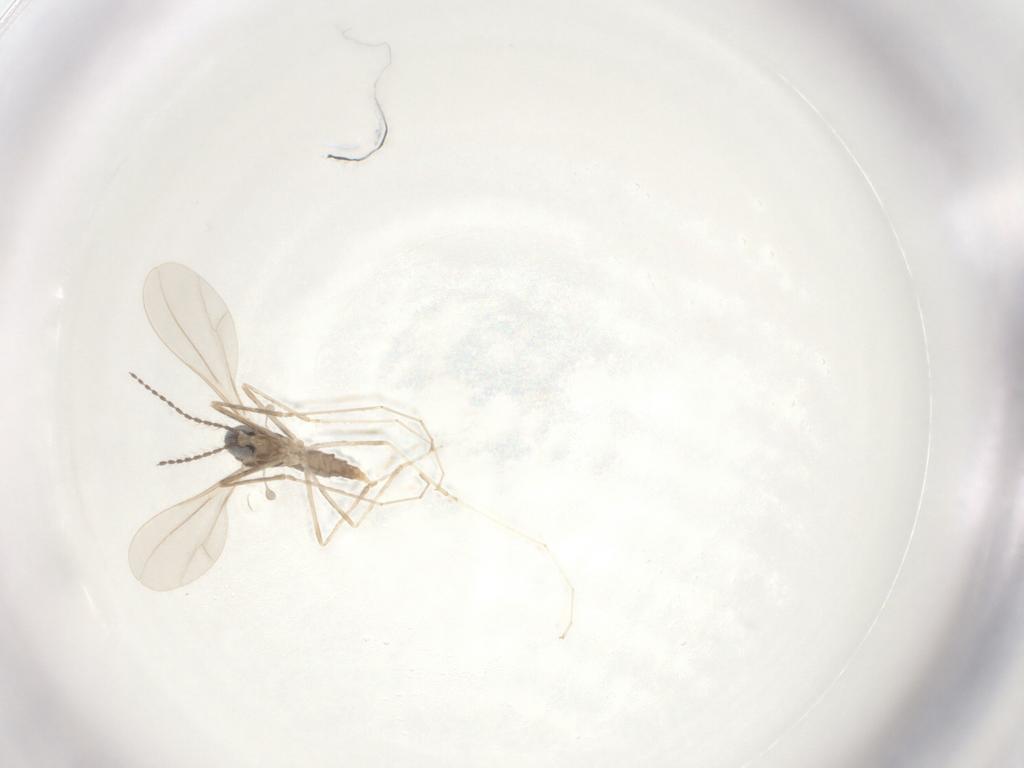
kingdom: Animalia
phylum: Arthropoda
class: Insecta
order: Diptera
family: Cecidomyiidae
